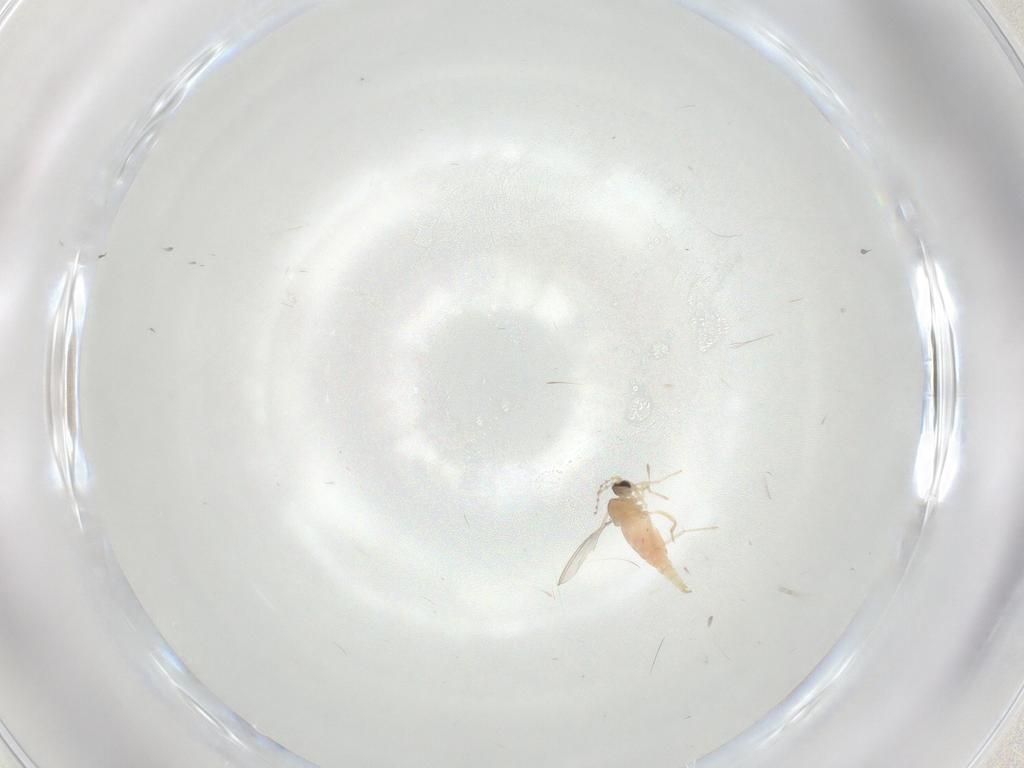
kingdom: Animalia
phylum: Arthropoda
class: Insecta
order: Diptera
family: Cecidomyiidae
